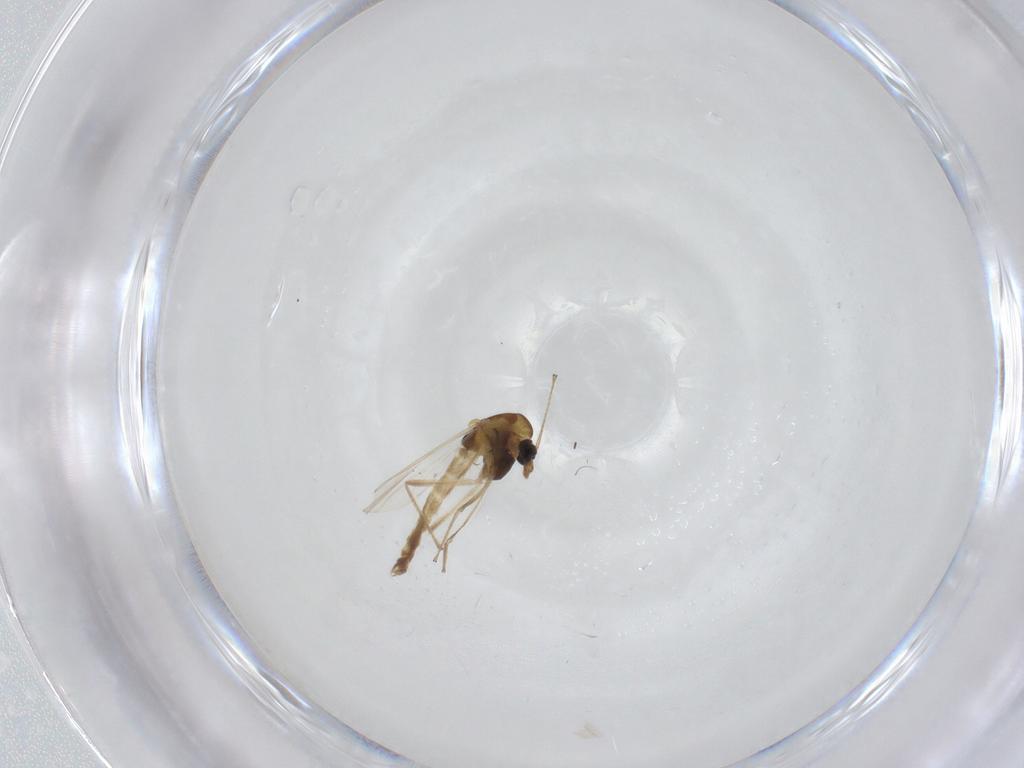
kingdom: Animalia
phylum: Arthropoda
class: Insecta
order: Diptera
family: Chironomidae
